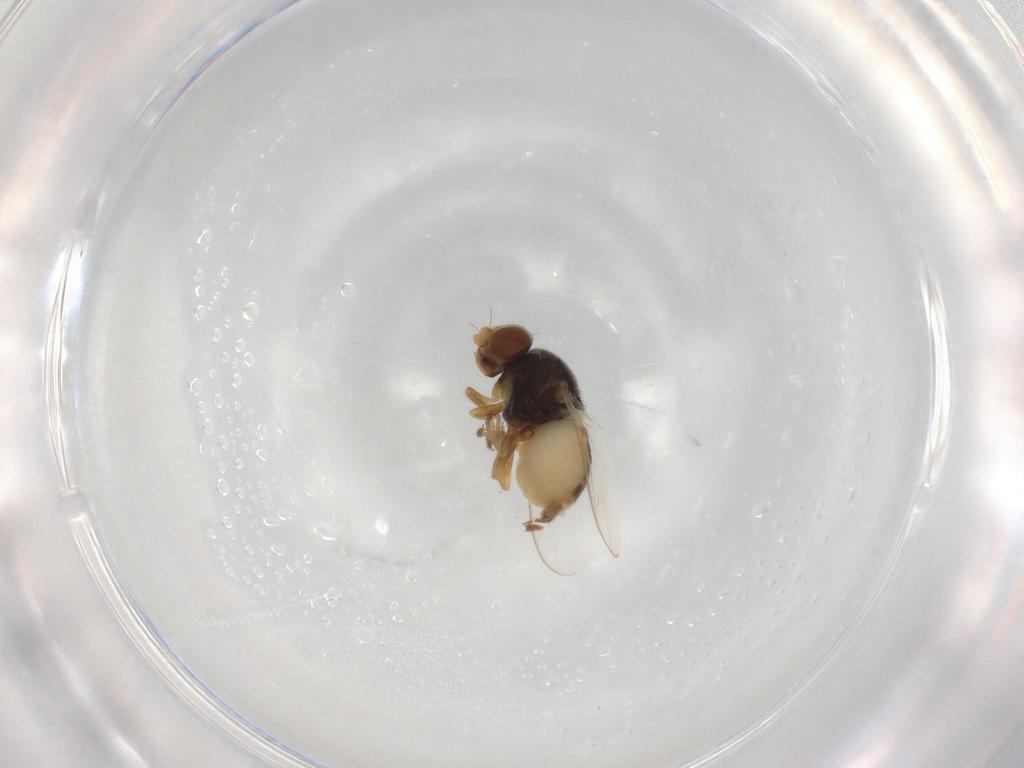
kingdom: Animalia
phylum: Arthropoda
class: Insecta
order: Diptera
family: Chloropidae
